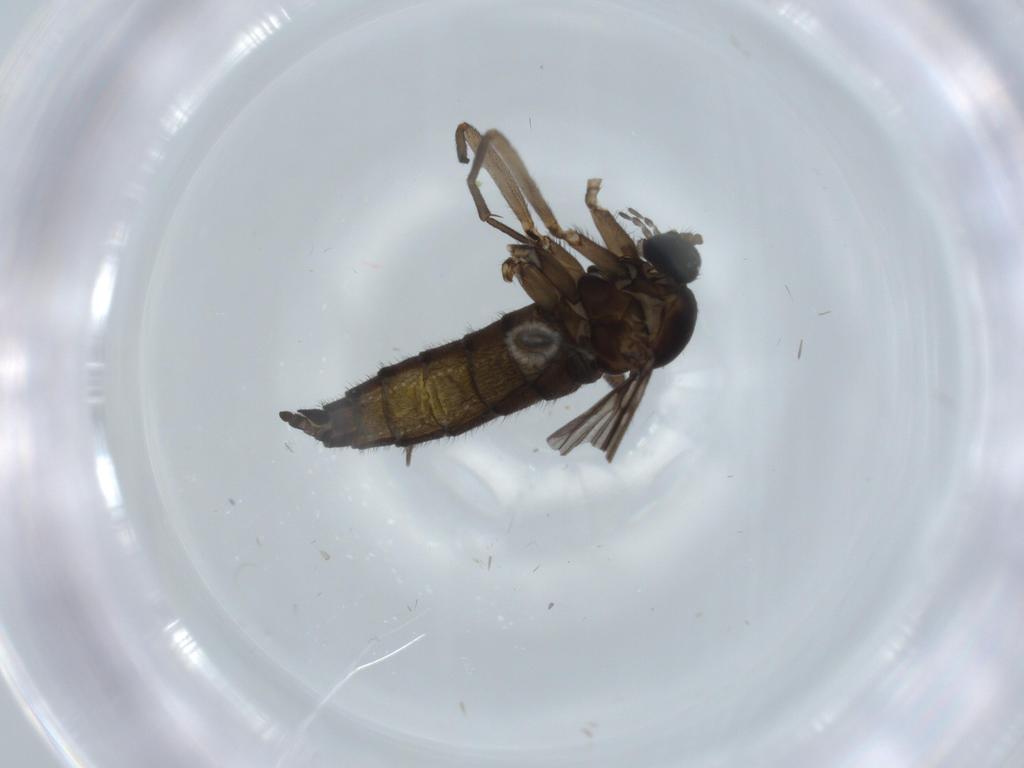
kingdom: Animalia
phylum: Arthropoda
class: Insecta
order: Diptera
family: Sciaridae
